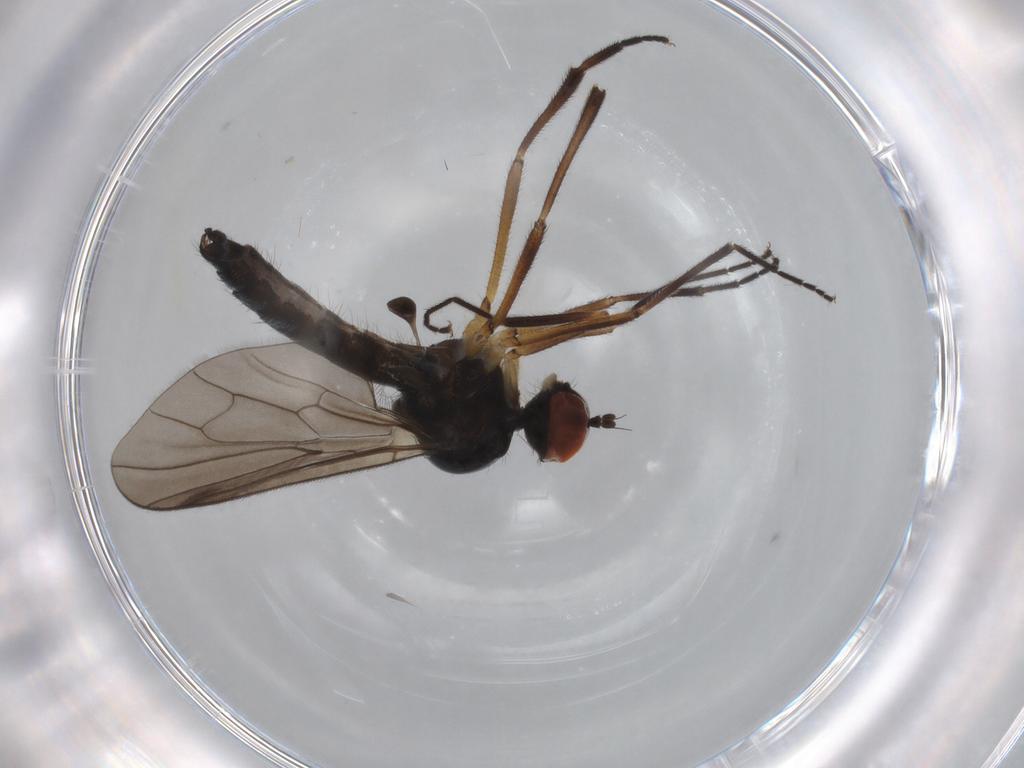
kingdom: Animalia
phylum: Arthropoda
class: Insecta
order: Diptera
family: Hybotidae
